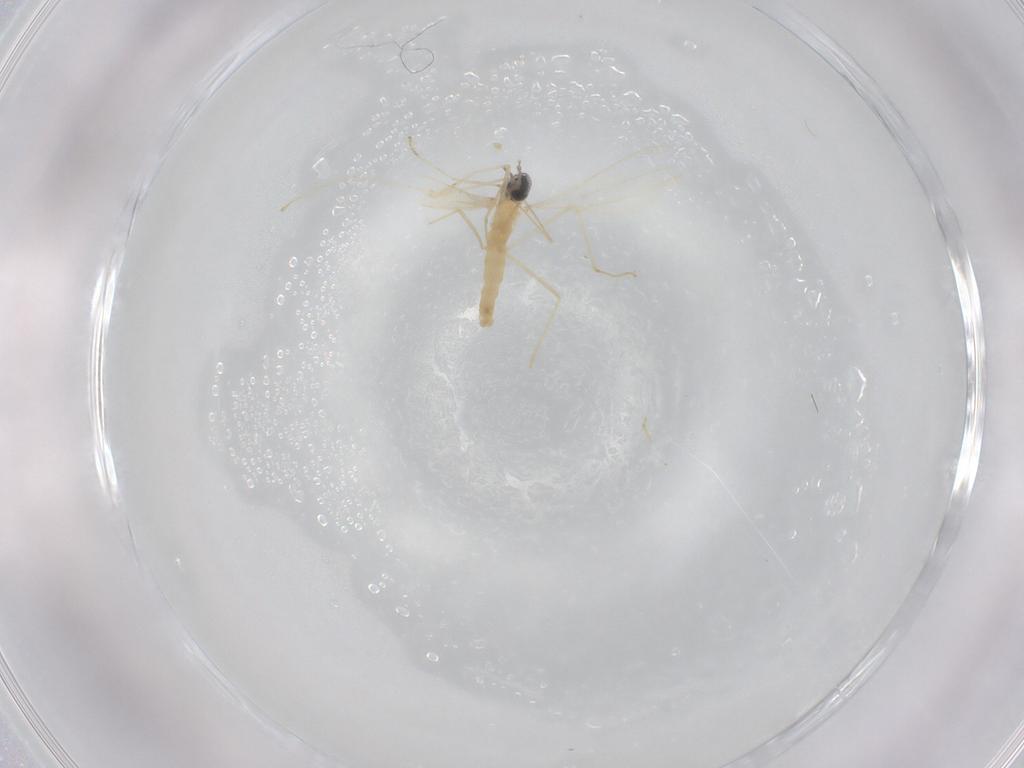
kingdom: Animalia
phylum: Arthropoda
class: Insecta
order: Diptera
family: Cecidomyiidae
